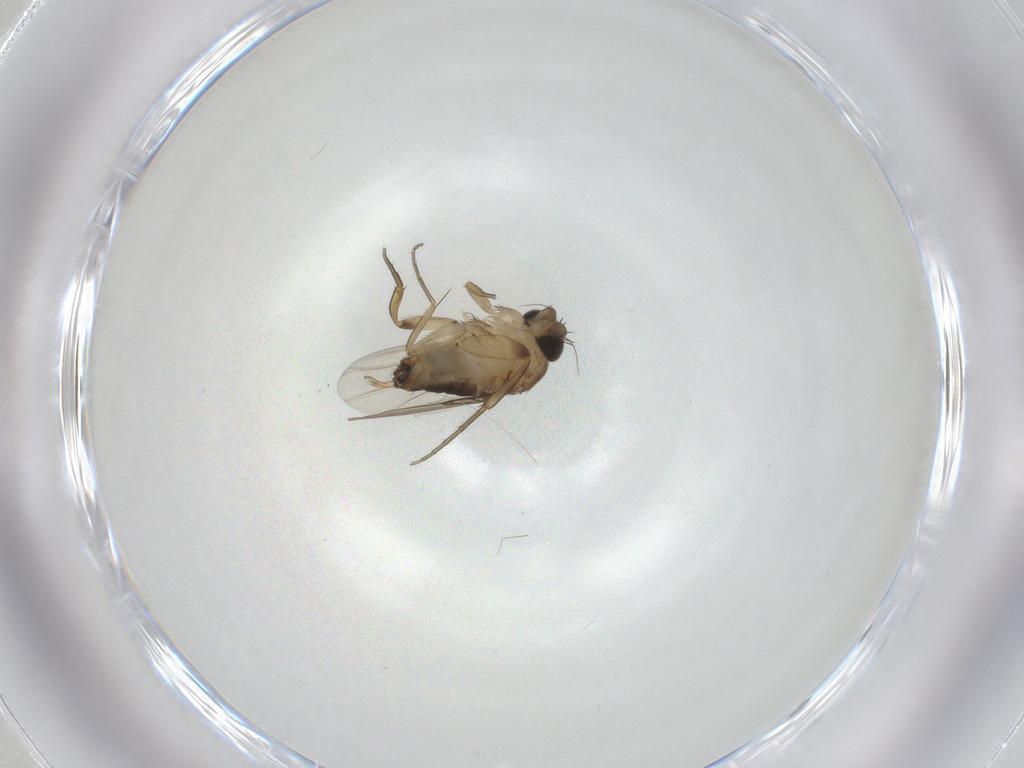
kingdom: Animalia
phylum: Arthropoda
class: Insecta
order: Diptera
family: Phoridae
